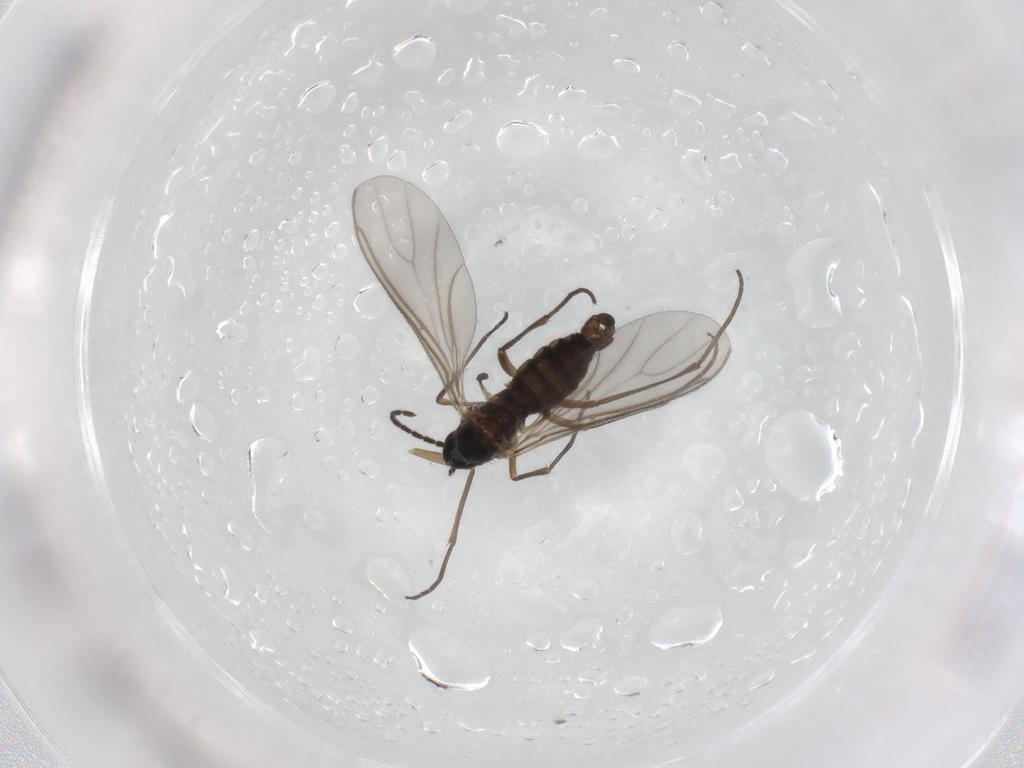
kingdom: Animalia
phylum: Arthropoda
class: Insecta
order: Diptera
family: Sciaridae
